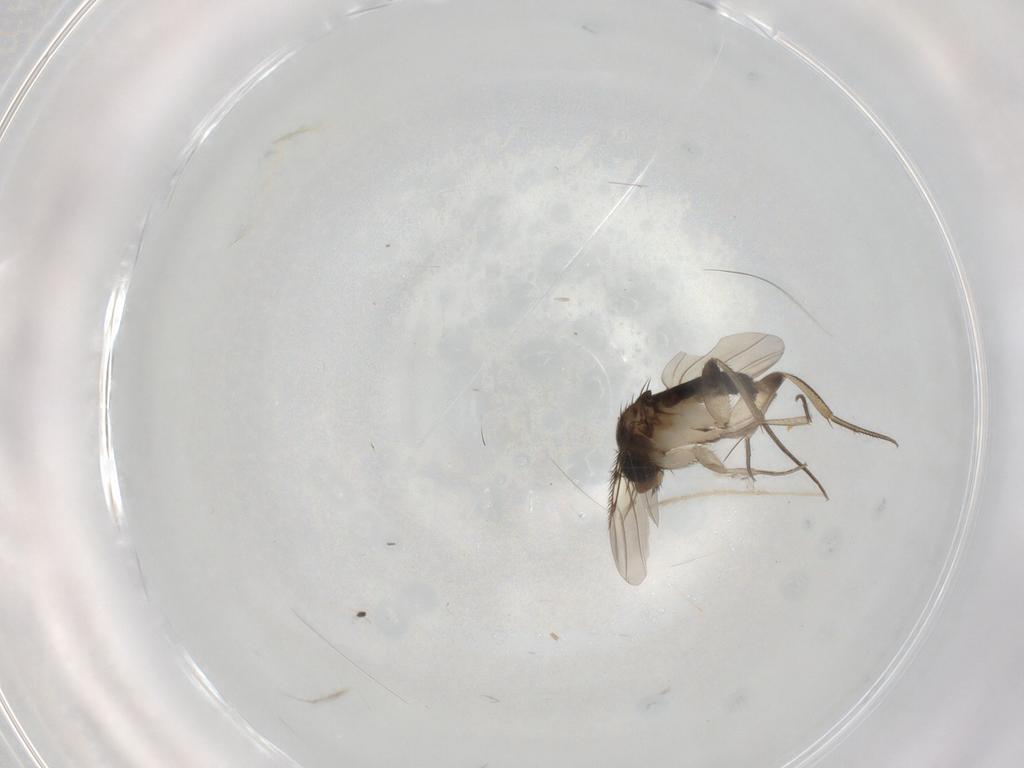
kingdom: Animalia
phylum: Arthropoda
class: Insecta
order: Diptera
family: Phoridae
